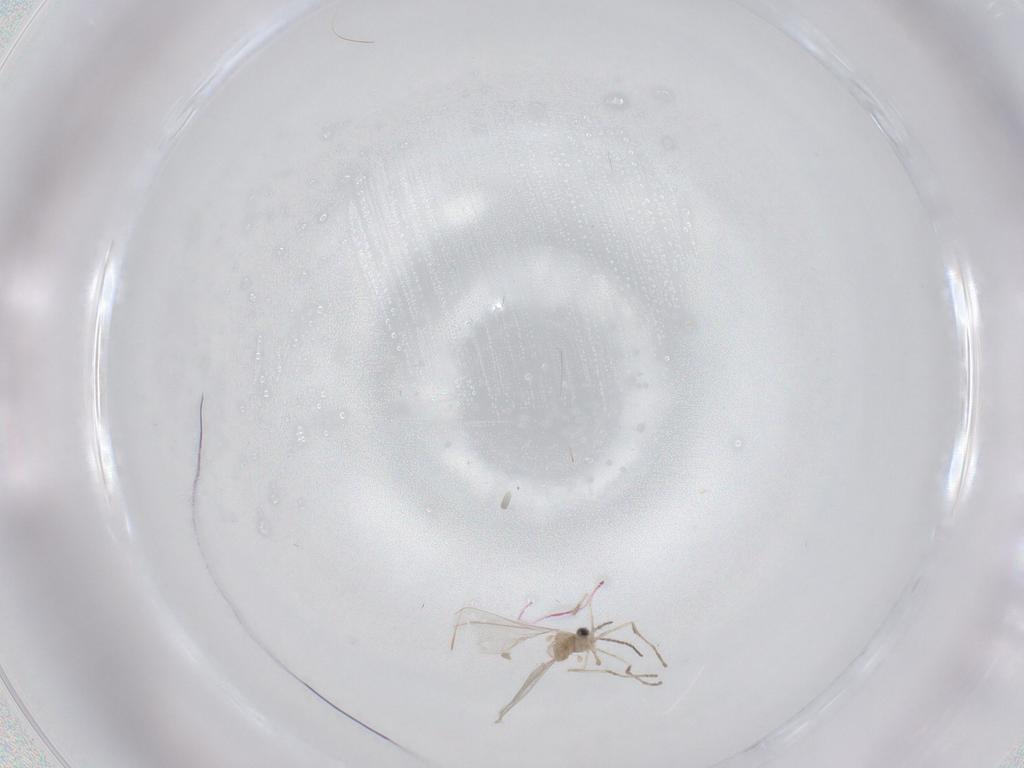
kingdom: Animalia
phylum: Arthropoda
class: Insecta
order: Diptera
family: Cecidomyiidae
